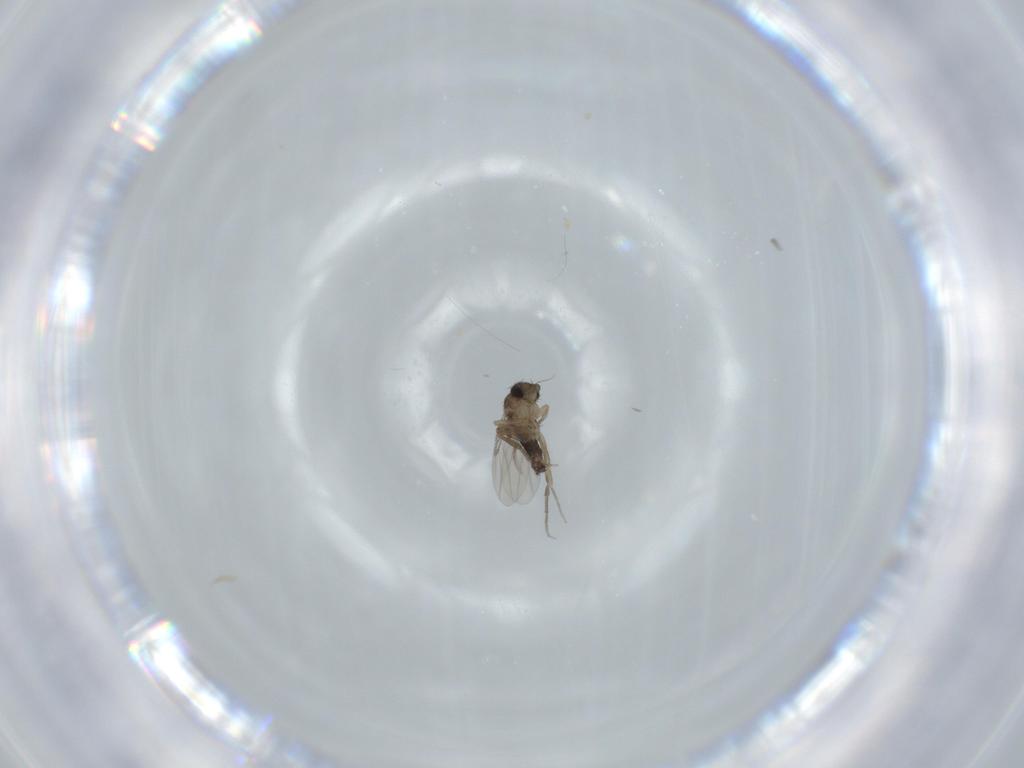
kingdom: Animalia
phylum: Arthropoda
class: Insecta
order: Diptera
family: Phoridae
